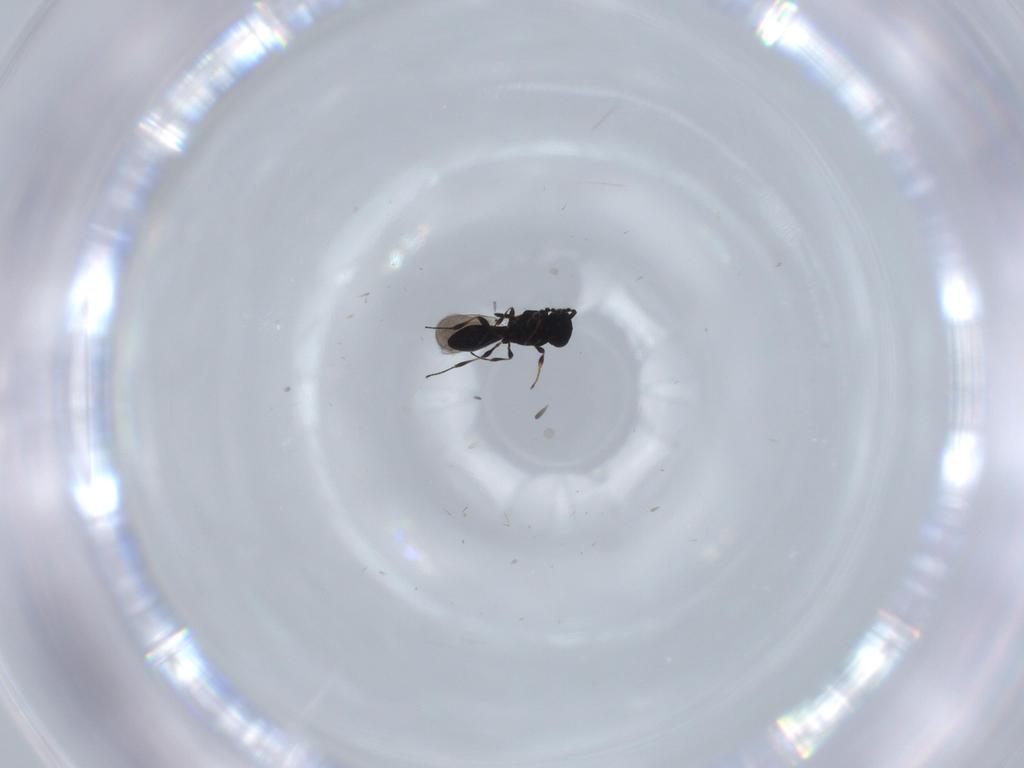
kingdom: Animalia
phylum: Arthropoda
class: Insecta
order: Hymenoptera
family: Platygastridae
